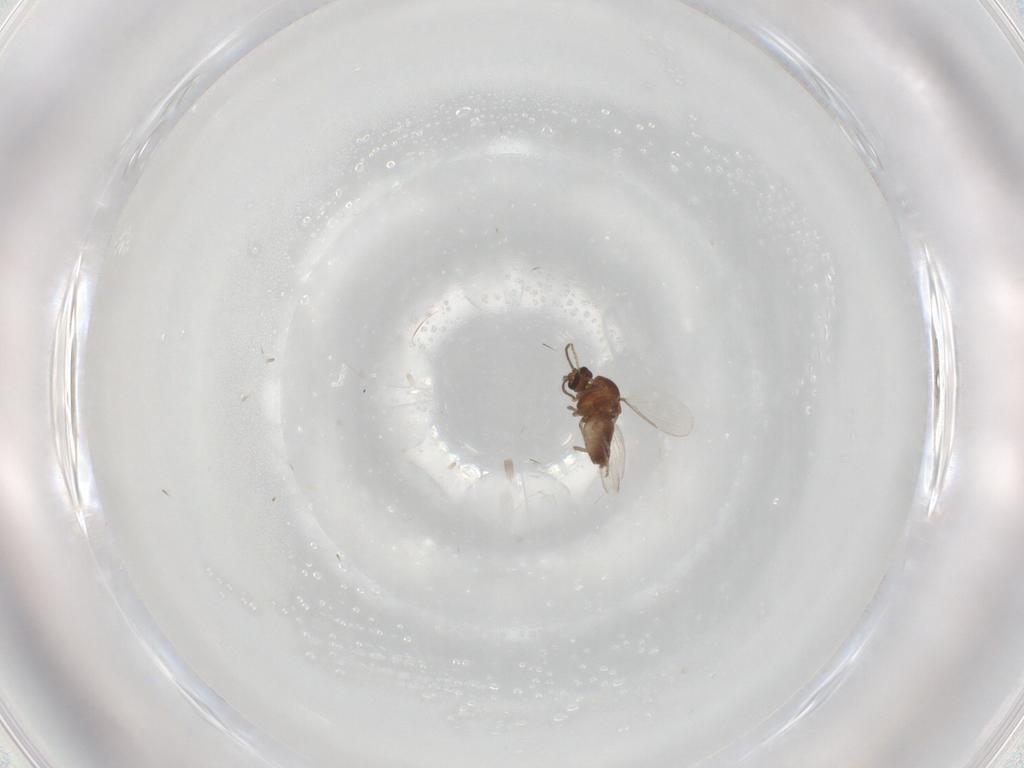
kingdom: Animalia
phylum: Arthropoda
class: Insecta
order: Diptera
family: Ceratopogonidae
